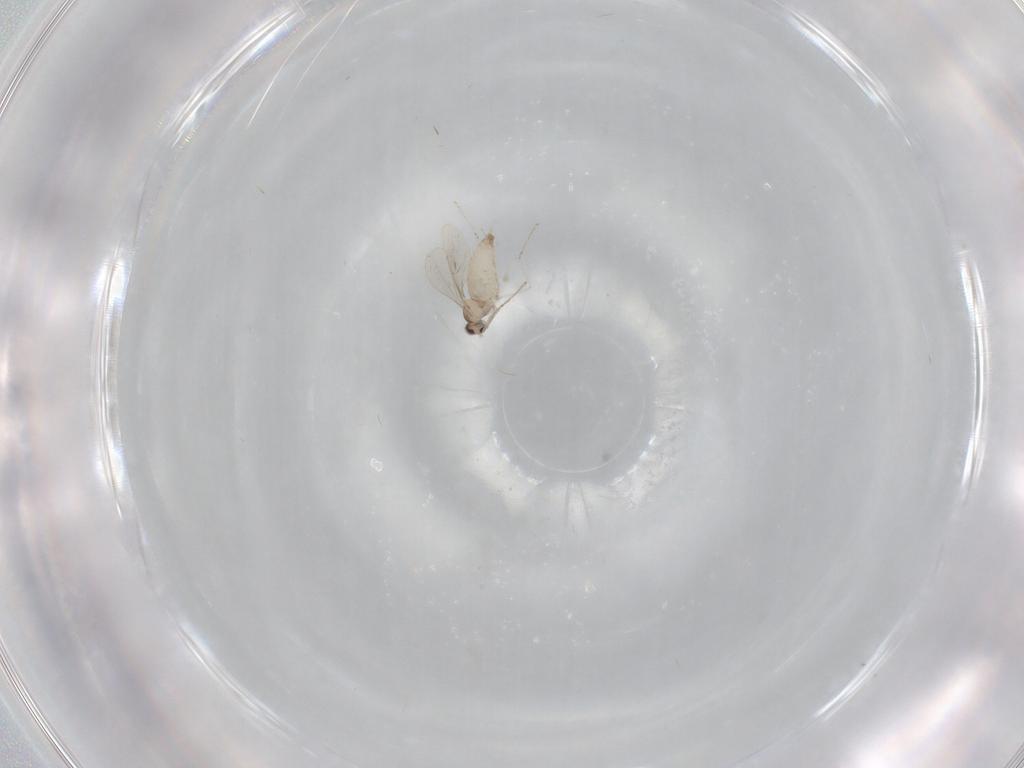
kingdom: Animalia
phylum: Arthropoda
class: Insecta
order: Diptera
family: Cecidomyiidae
